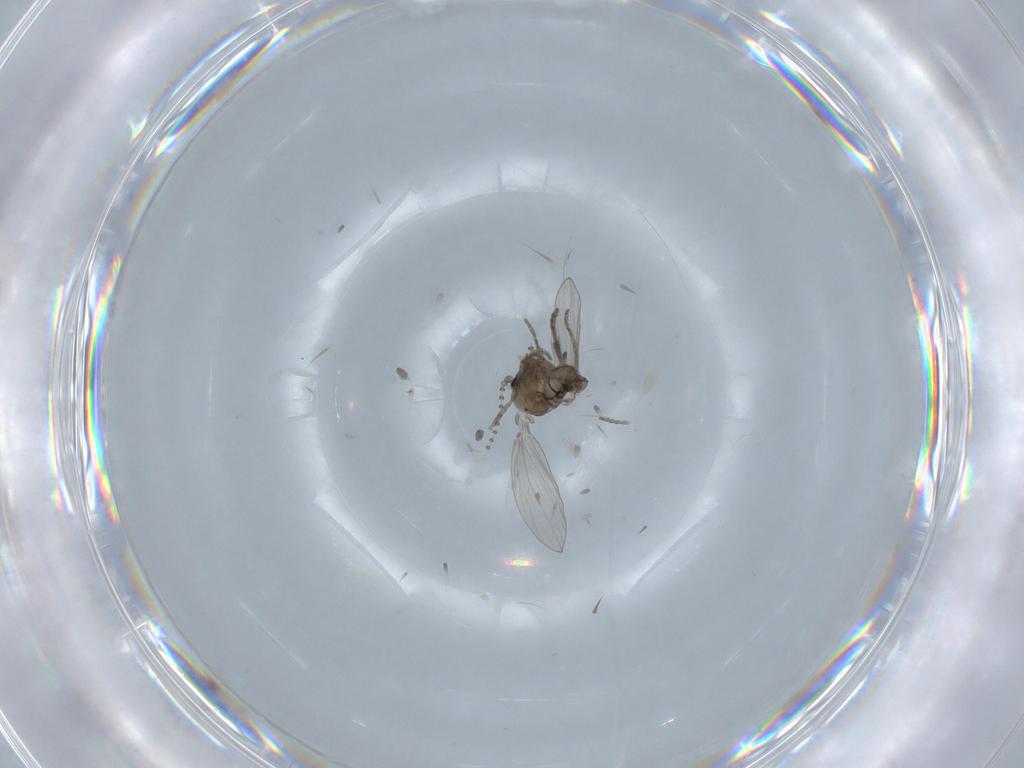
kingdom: Animalia
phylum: Arthropoda
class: Insecta
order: Diptera
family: Psychodidae
